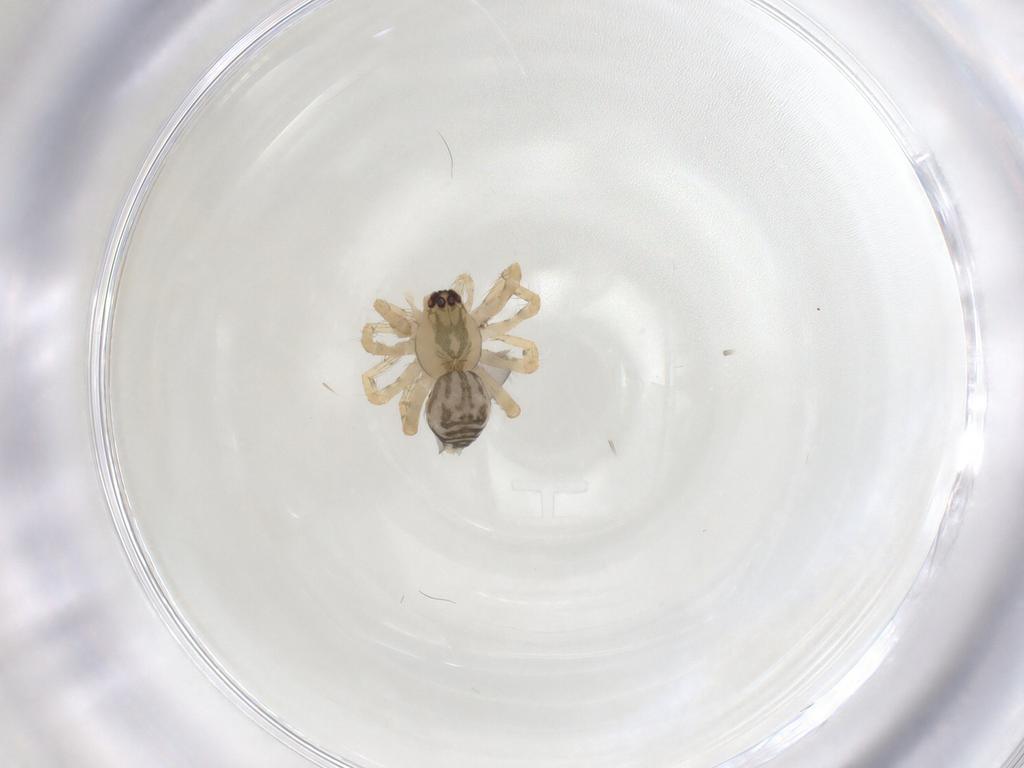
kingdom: Animalia
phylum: Arthropoda
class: Arachnida
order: Araneae
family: Amaurobiidae
